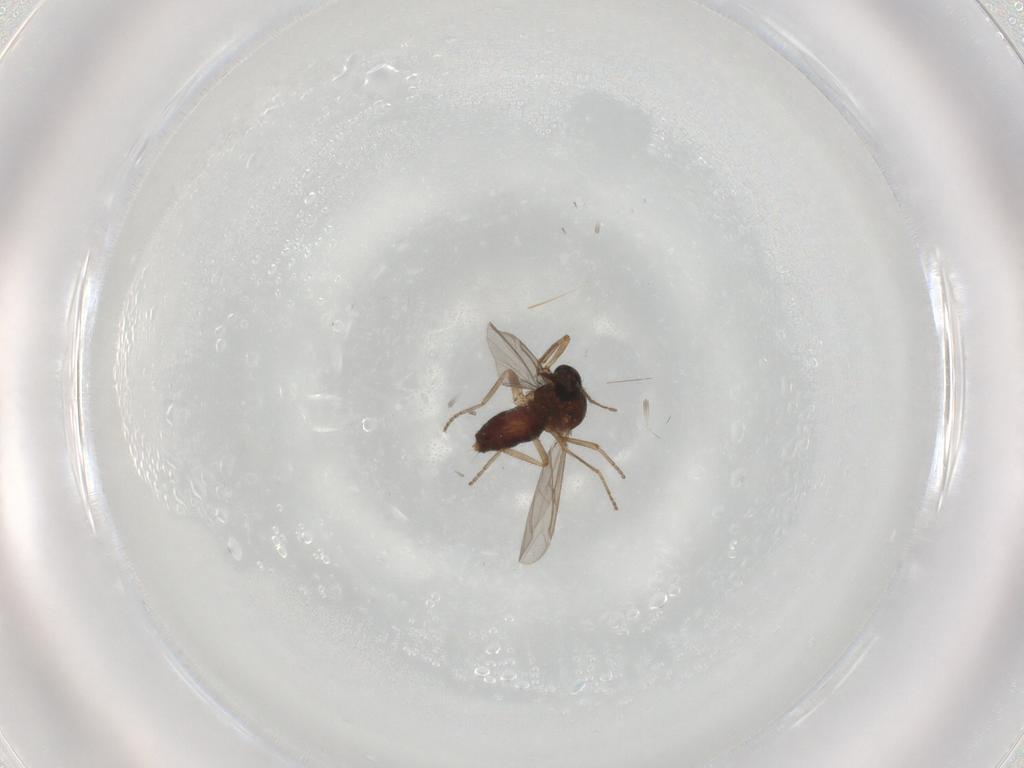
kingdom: Animalia
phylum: Arthropoda
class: Insecta
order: Diptera
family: Ceratopogonidae
